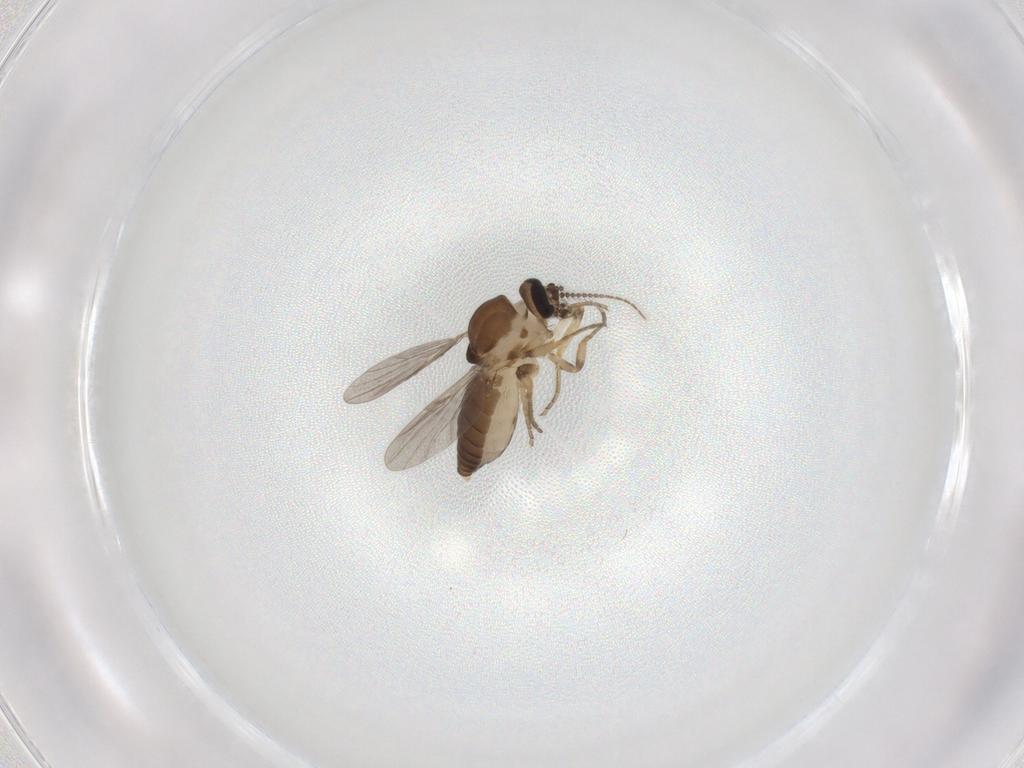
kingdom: Animalia
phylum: Arthropoda
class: Insecta
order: Diptera
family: Ceratopogonidae
